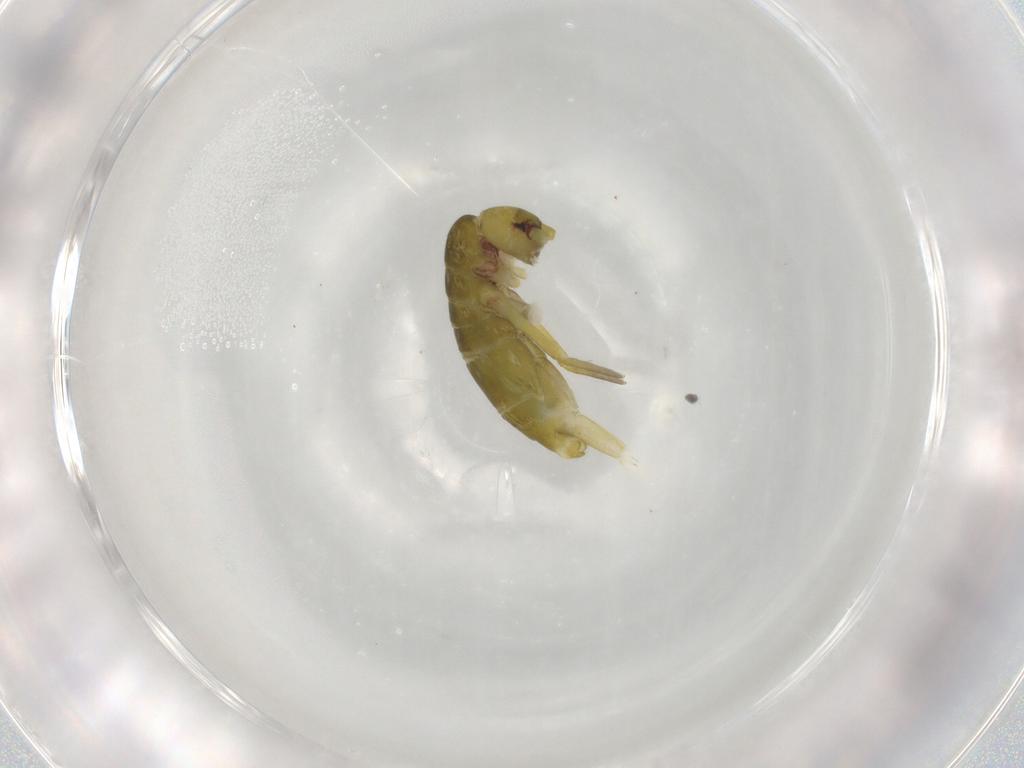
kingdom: Animalia
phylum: Arthropoda
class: Collembola
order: Entomobryomorpha
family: Tomoceridae
